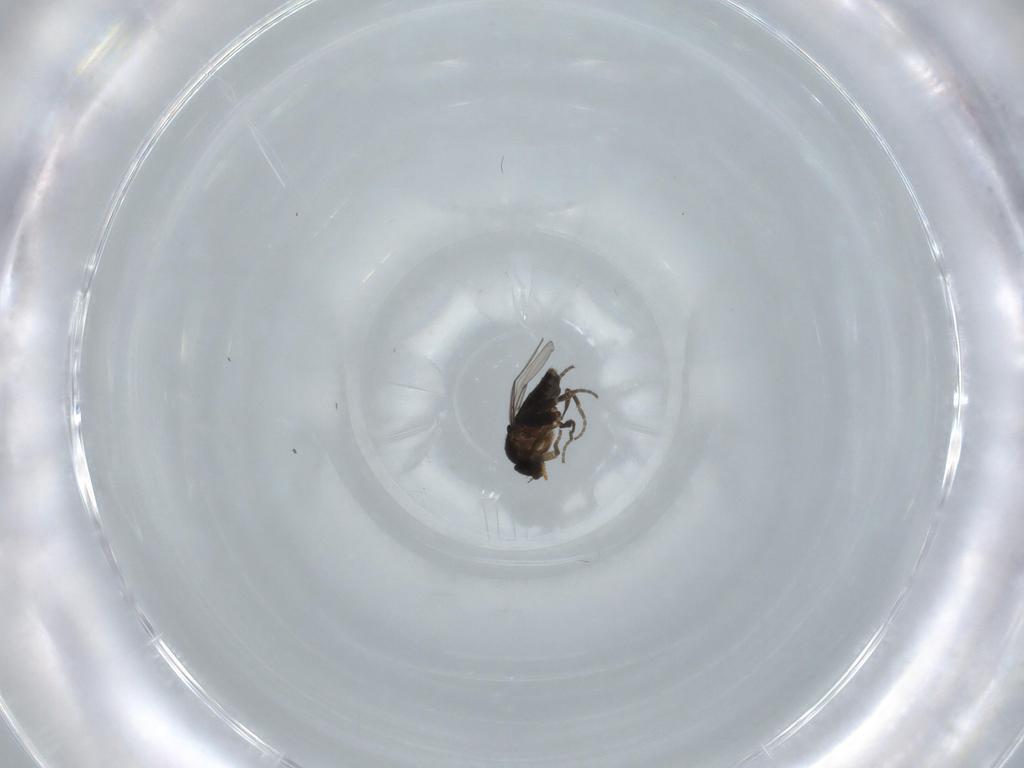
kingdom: Animalia
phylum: Arthropoda
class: Insecta
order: Diptera
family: Phoridae
